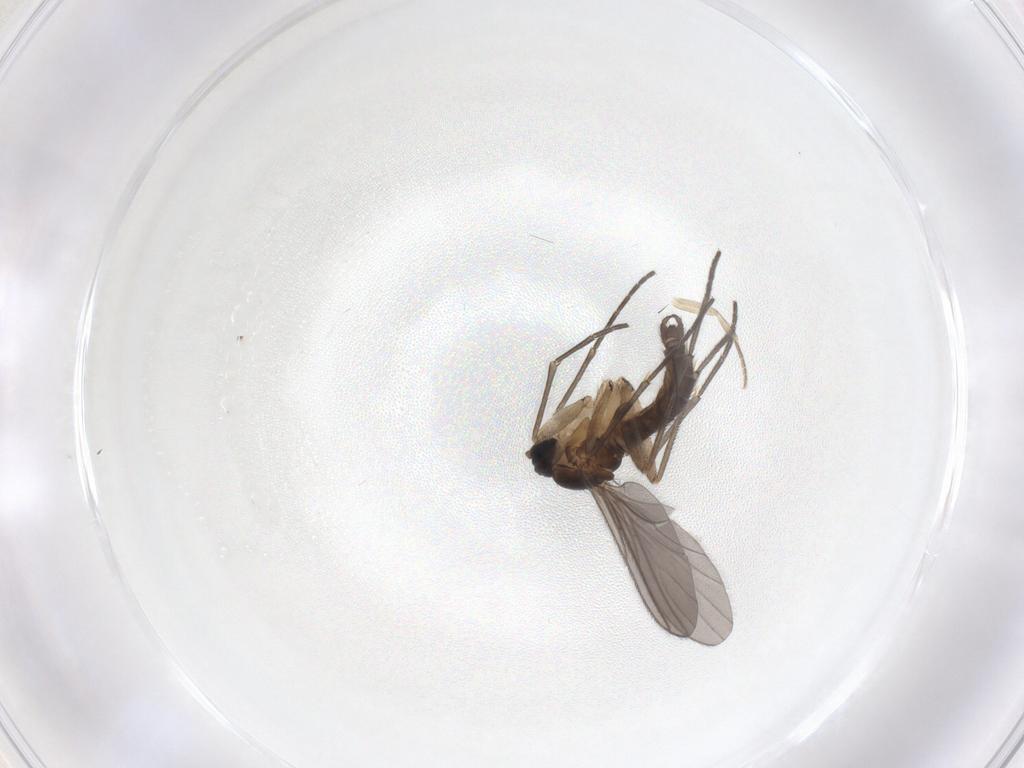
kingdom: Animalia
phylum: Arthropoda
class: Insecta
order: Diptera
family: Sciaridae
